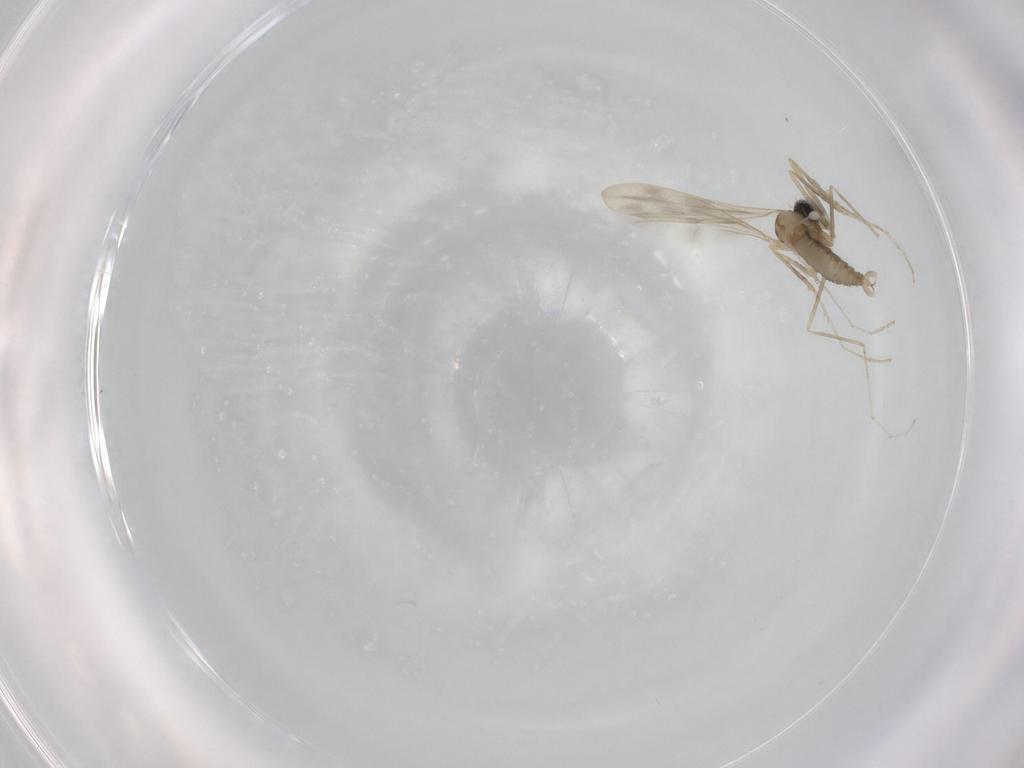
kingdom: Animalia
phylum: Arthropoda
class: Insecta
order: Diptera
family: Cecidomyiidae
